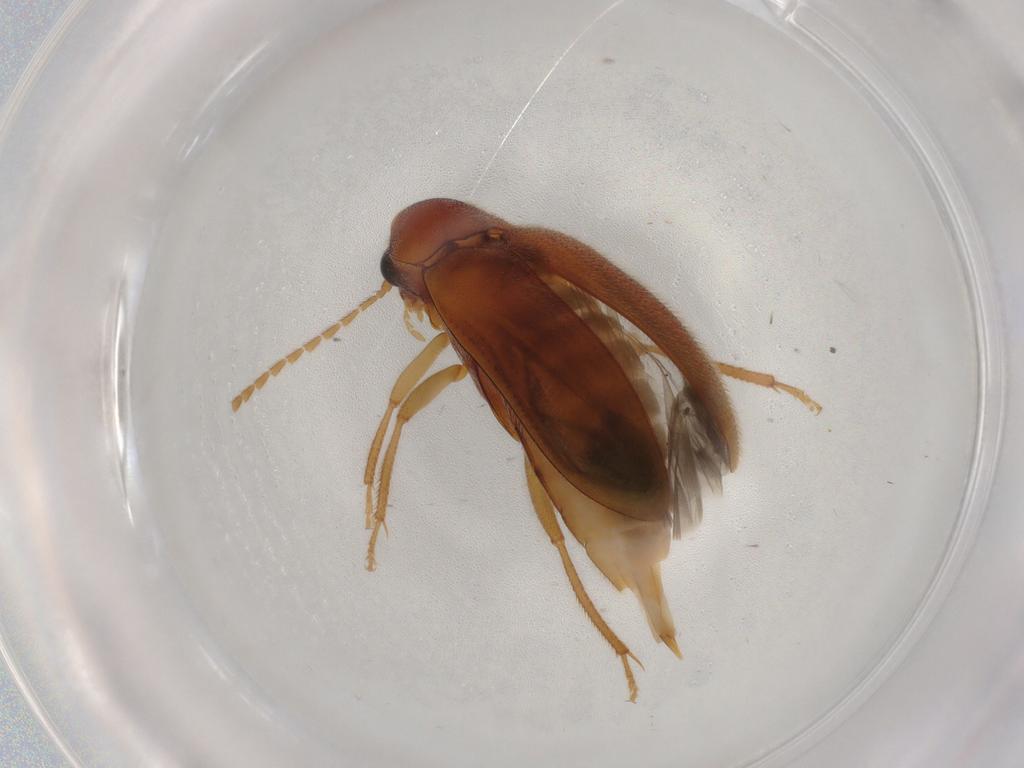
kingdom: Animalia
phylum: Arthropoda
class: Insecta
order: Coleoptera
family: Ptilodactylidae
